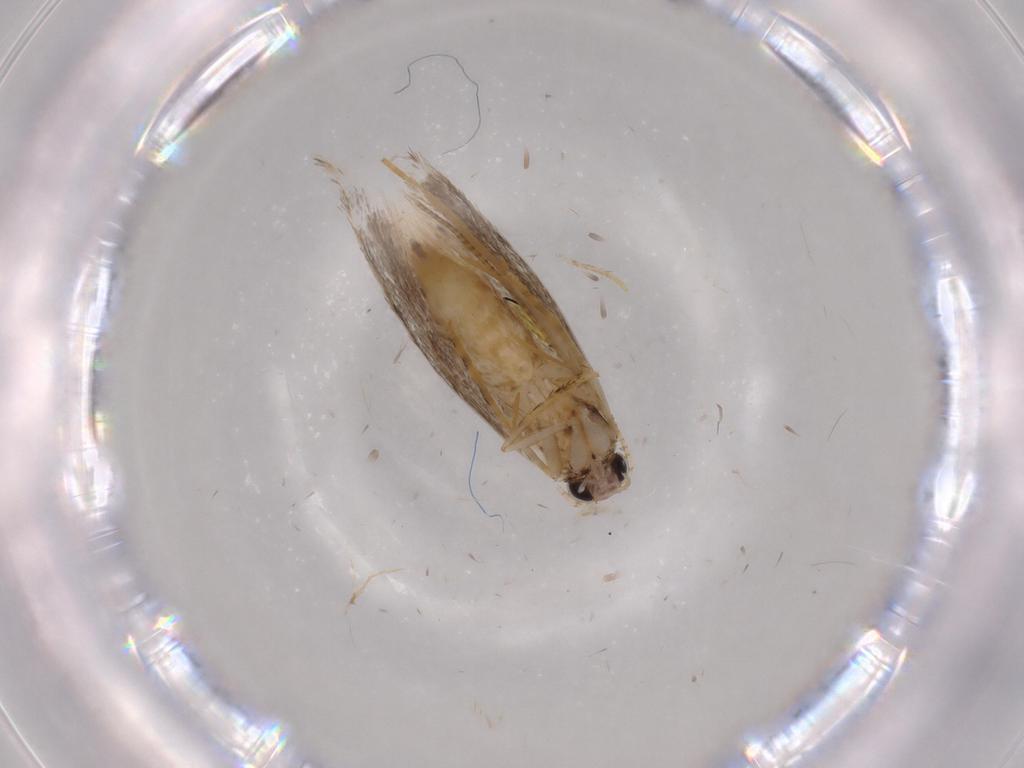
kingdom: Animalia
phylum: Arthropoda
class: Insecta
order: Lepidoptera
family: Tineidae
